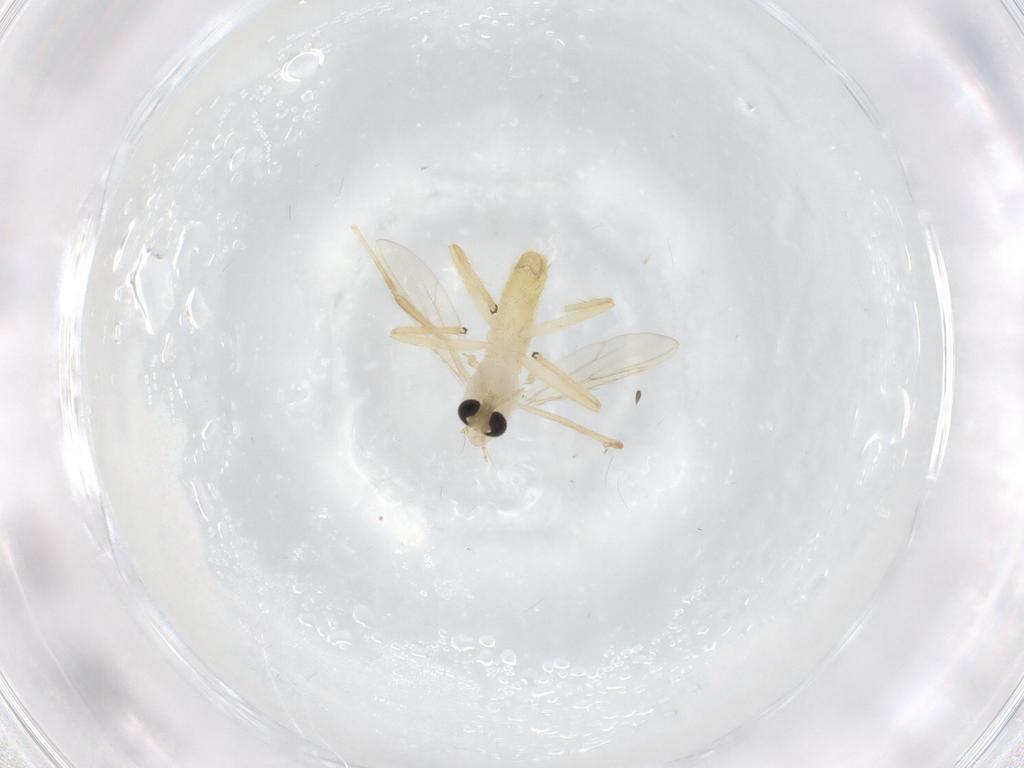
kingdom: Animalia
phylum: Arthropoda
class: Insecta
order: Diptera
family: Chironomidae
